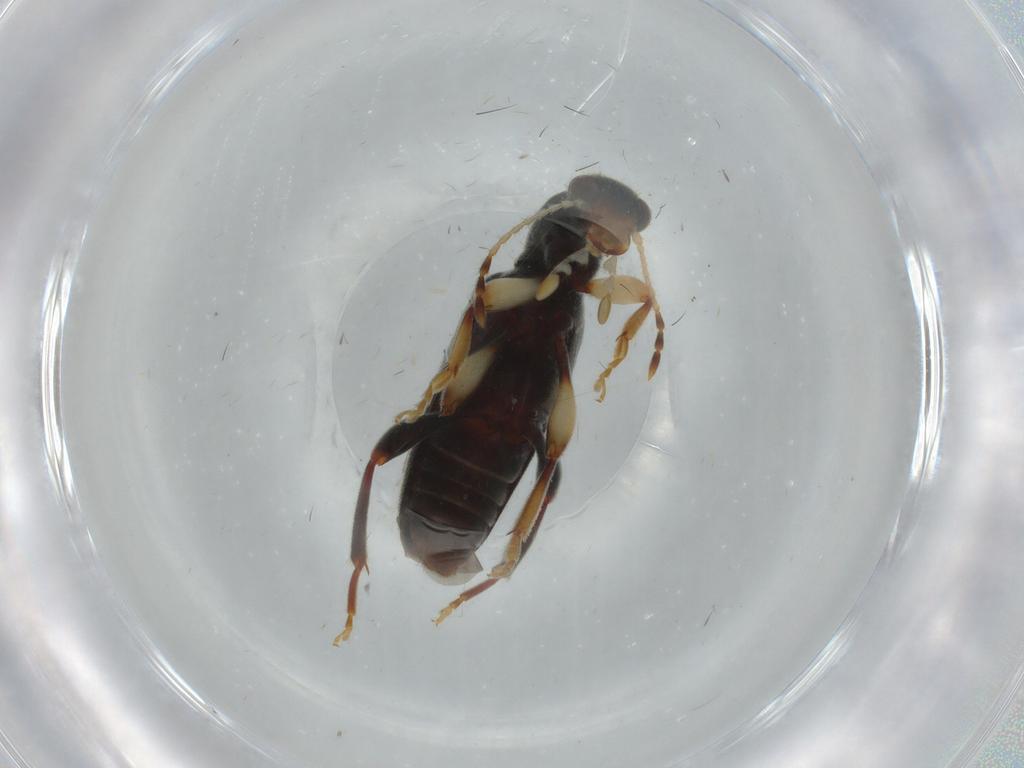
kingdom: Animalia
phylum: Arthropoda
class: Insecta
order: Coleoptera
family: Anthicidae
